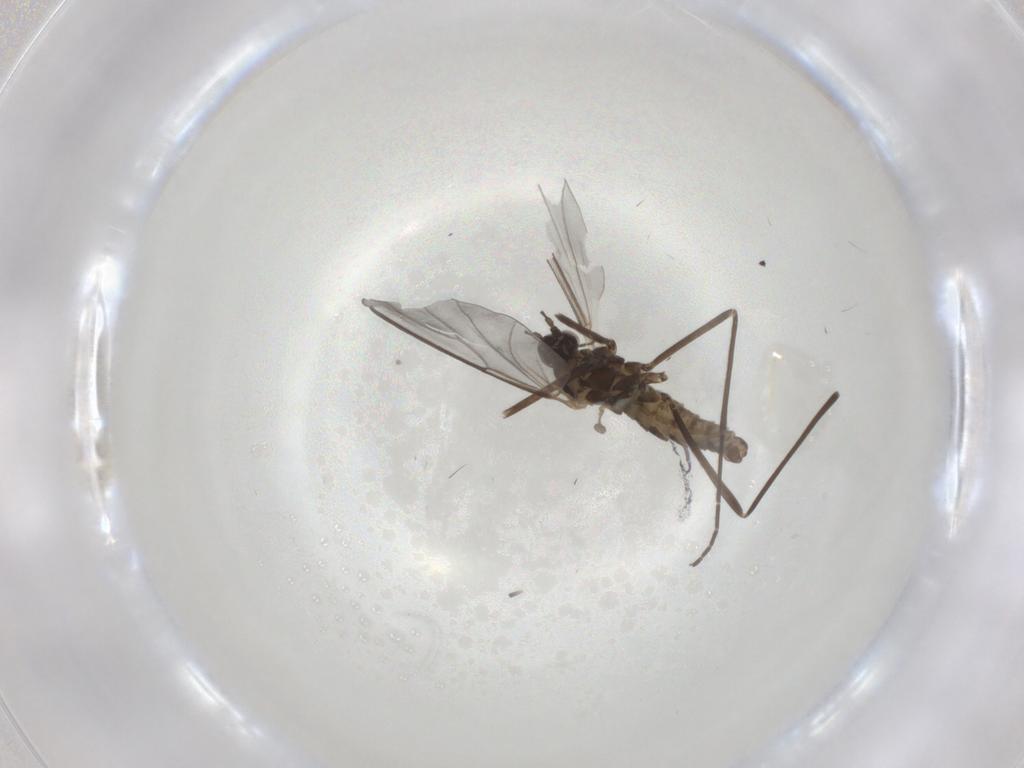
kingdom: Animalia
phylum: Arthropoda
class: Insecta
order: Diptera
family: Cecidomyiidae
